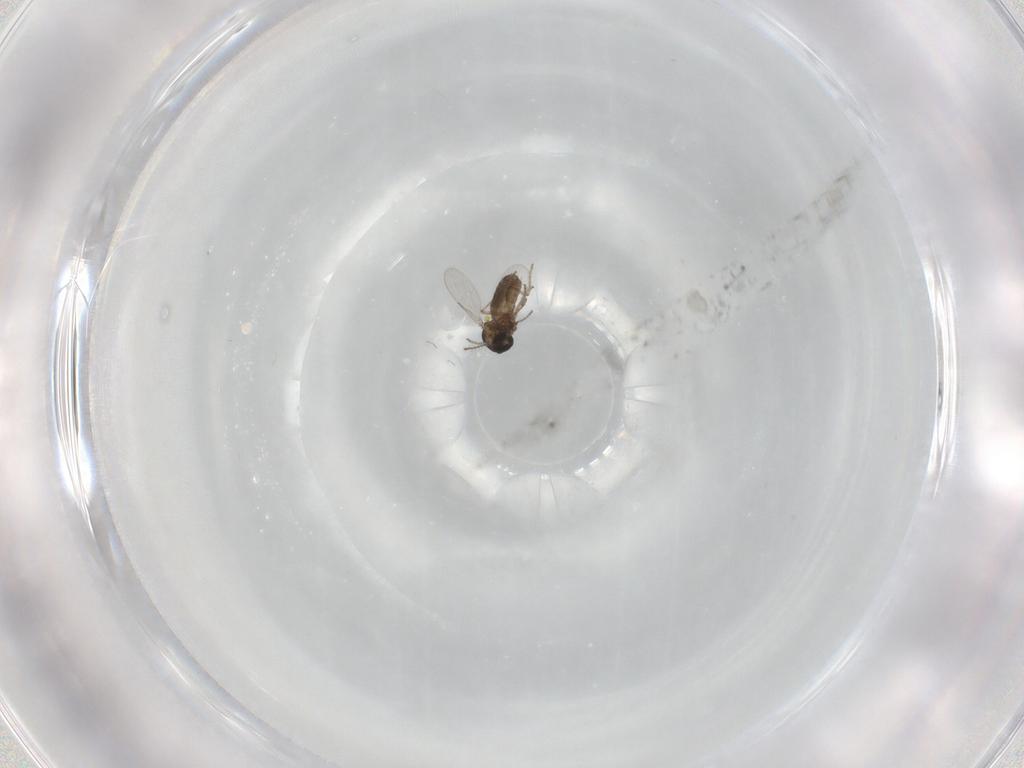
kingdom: Animalia
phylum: Arthropoda
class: Insecta
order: Diptera
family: Ceratopogonidae
